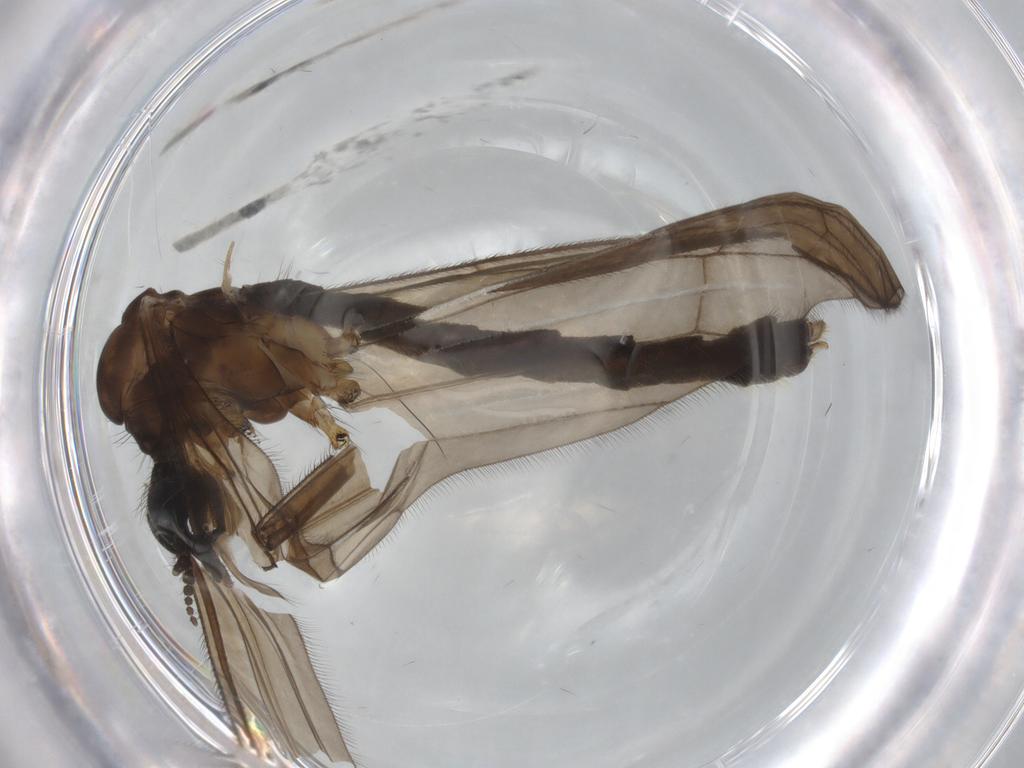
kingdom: Animalia
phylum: Arthropoda
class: Insecta
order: Diptera
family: Limoniidae
